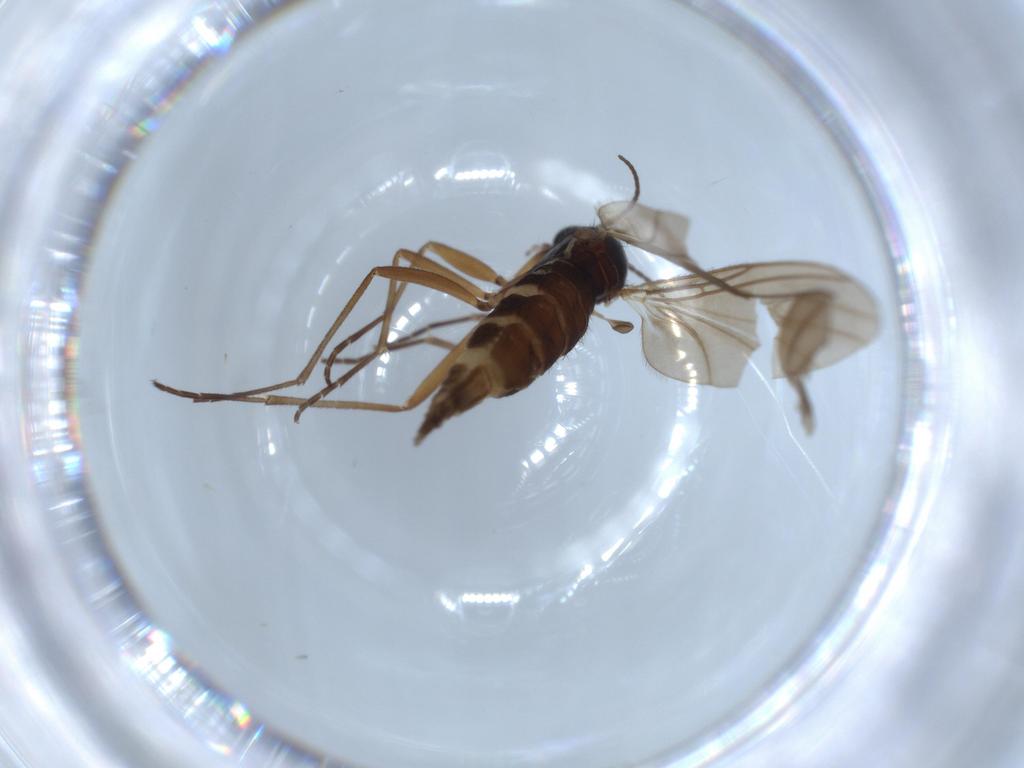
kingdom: Animalia
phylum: Arthropoda
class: Insecta
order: Diptera
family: Sciaridae
